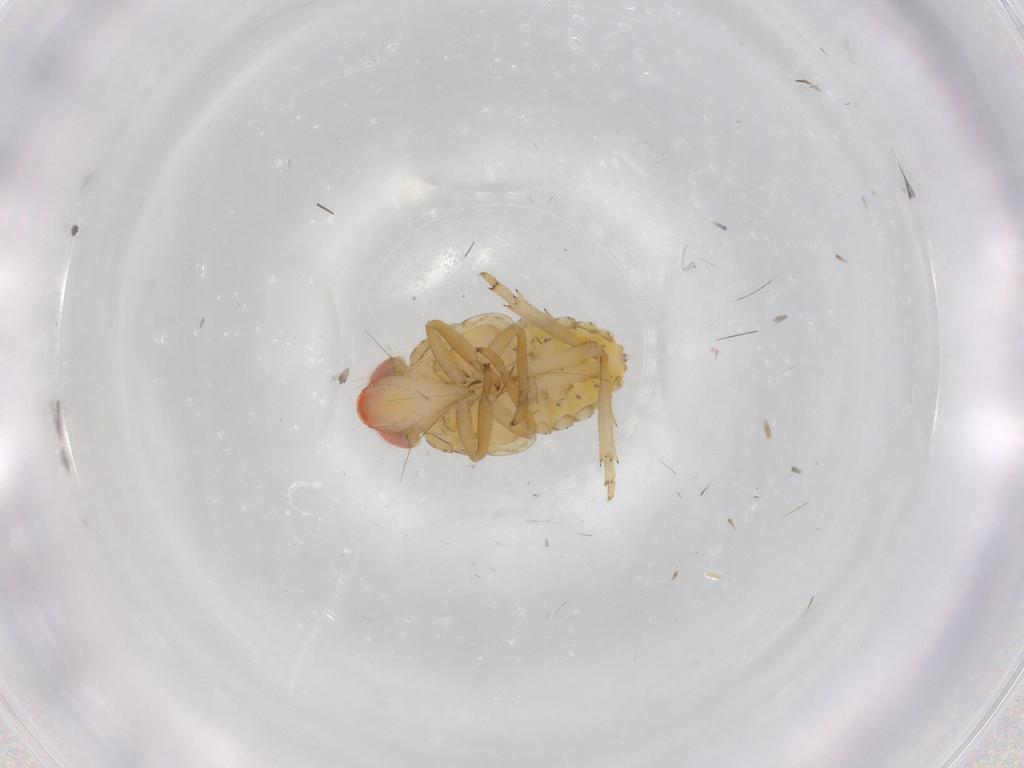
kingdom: Animalia
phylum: Arthropoda
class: Insecta
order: Hemiptera
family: Issidae
